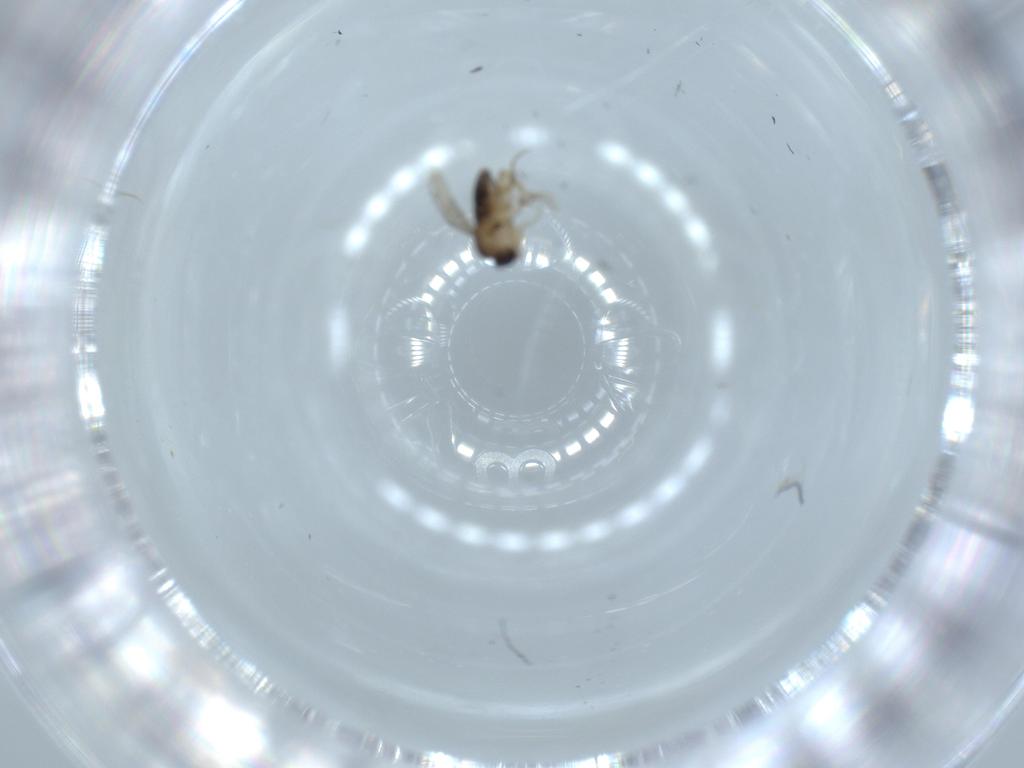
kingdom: Animalia
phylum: Arthropoda
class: Insecta
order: Diptera
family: Phoridae
